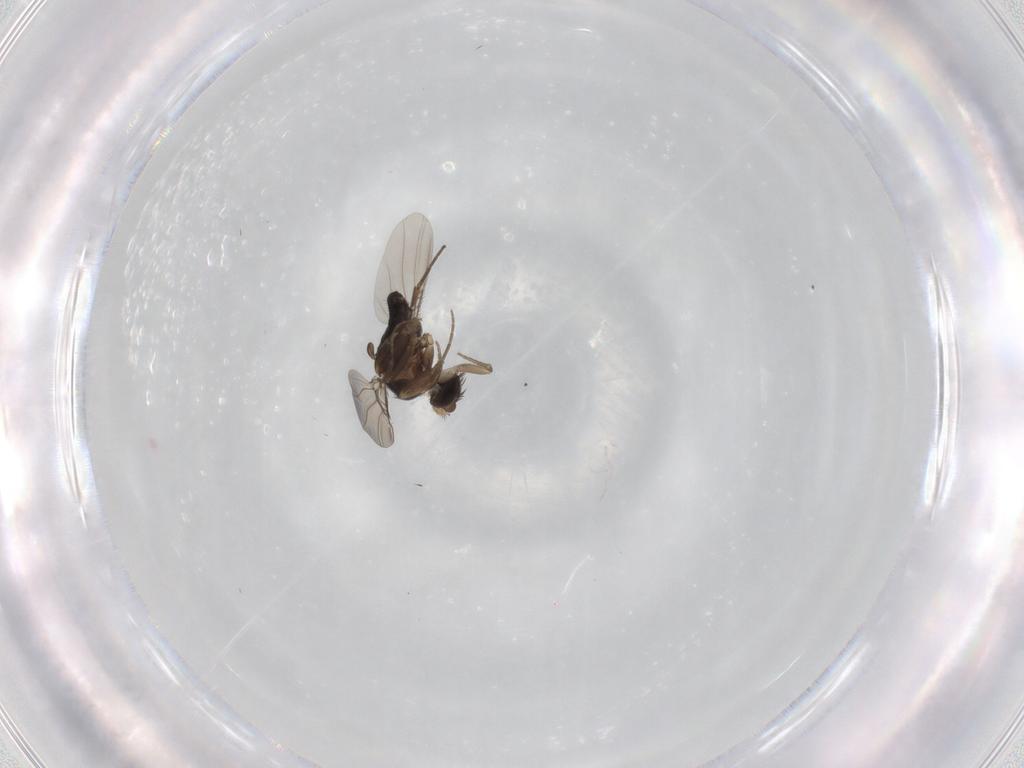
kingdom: Animalia
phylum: Arthropoda
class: Insecta
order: Diptera
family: Phoridae
